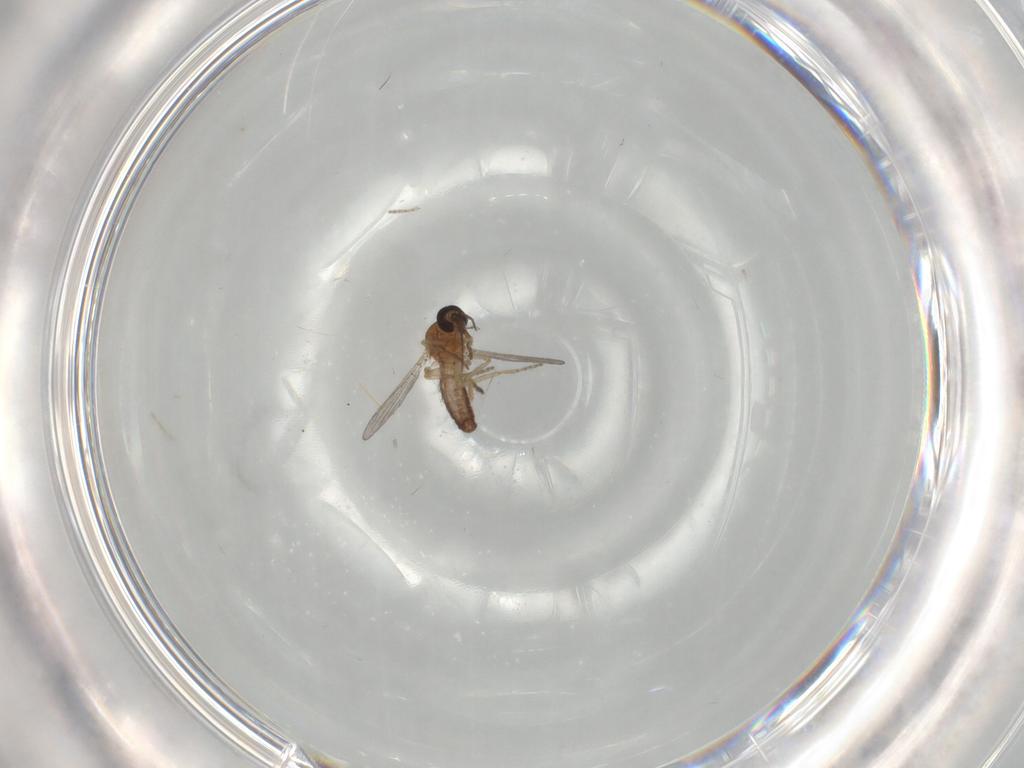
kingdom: Animalia
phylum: Arthropoda
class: Insecta
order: Diptera
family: Ceratopogonidae
